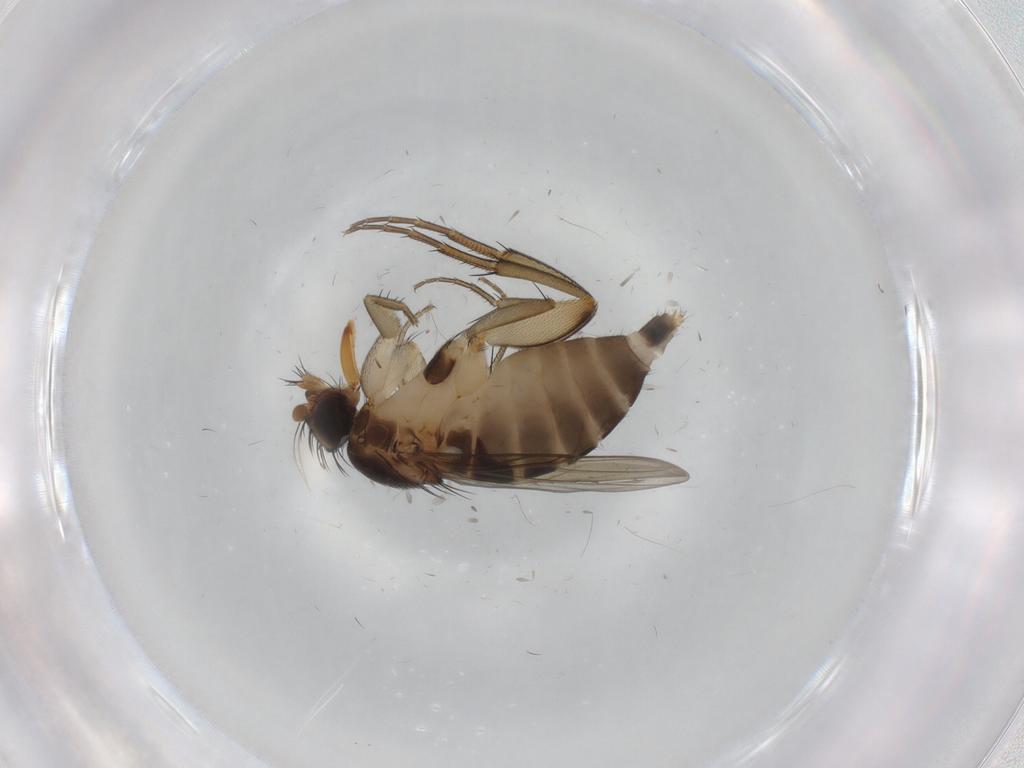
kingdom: Animalia
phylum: Arthropoda
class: Insecta
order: Diptera
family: Phoridae
